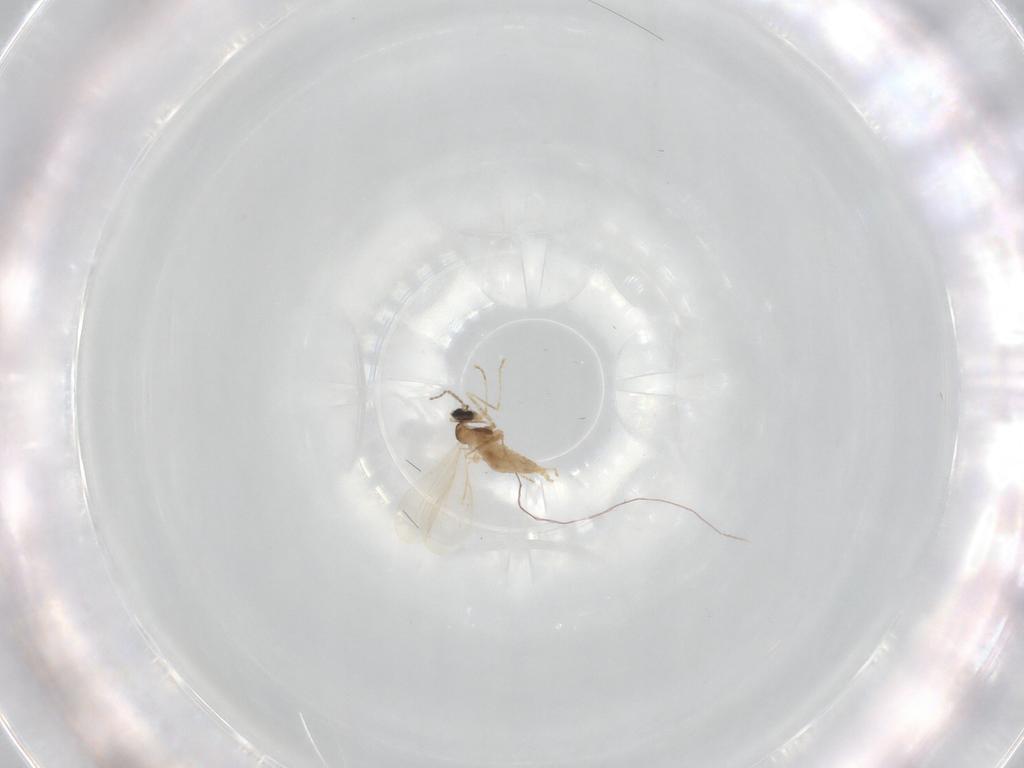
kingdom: Animalia
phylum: Arthropoda
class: Insecta
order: Diptera
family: Cecidomyiidae
